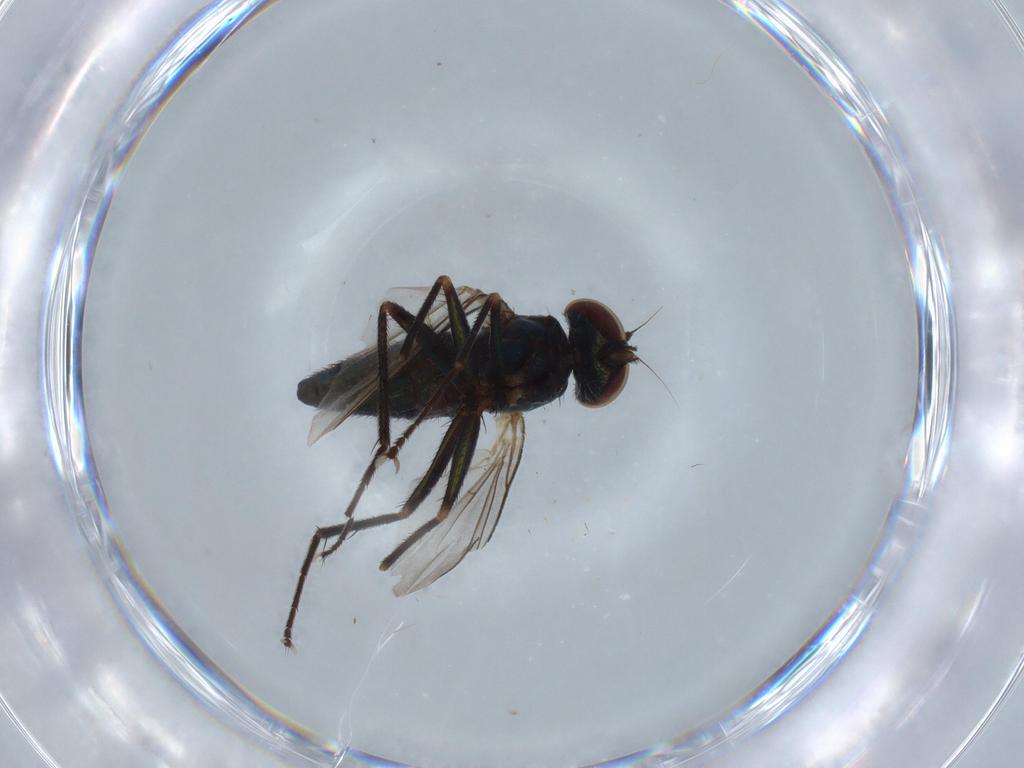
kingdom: Animalia
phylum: Arthropoda
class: Insecta
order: Diptera
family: Dolichopodidae
